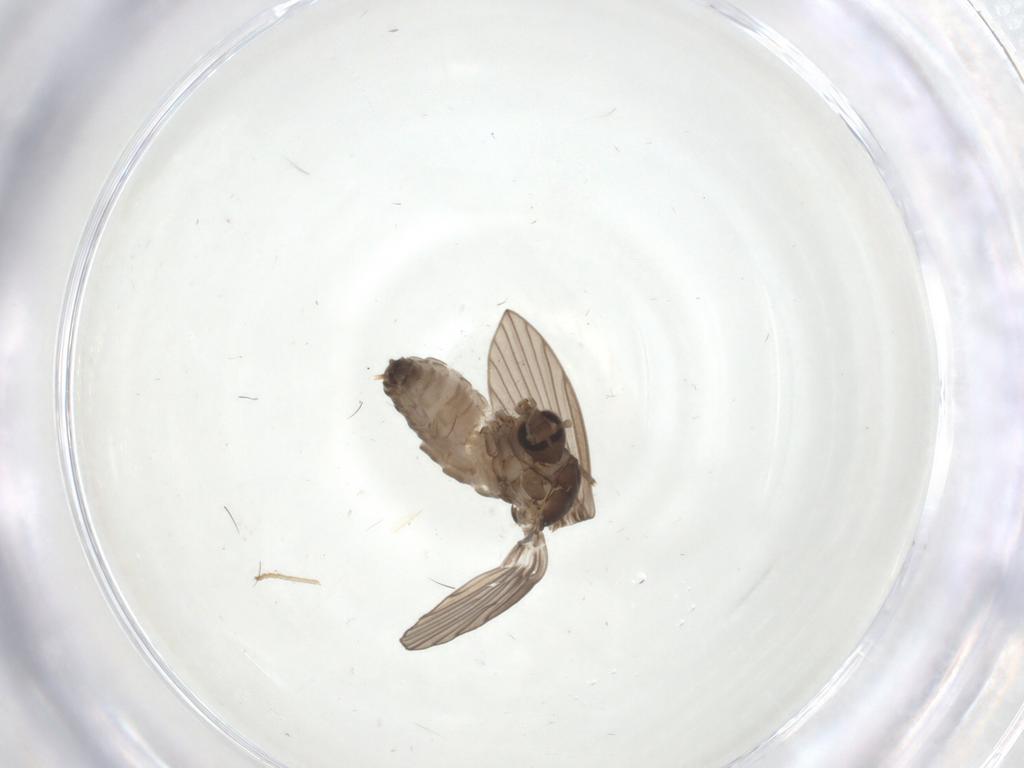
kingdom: Animalia
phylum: Arthropoda
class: Insecta
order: Diptera
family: Psychodidae
